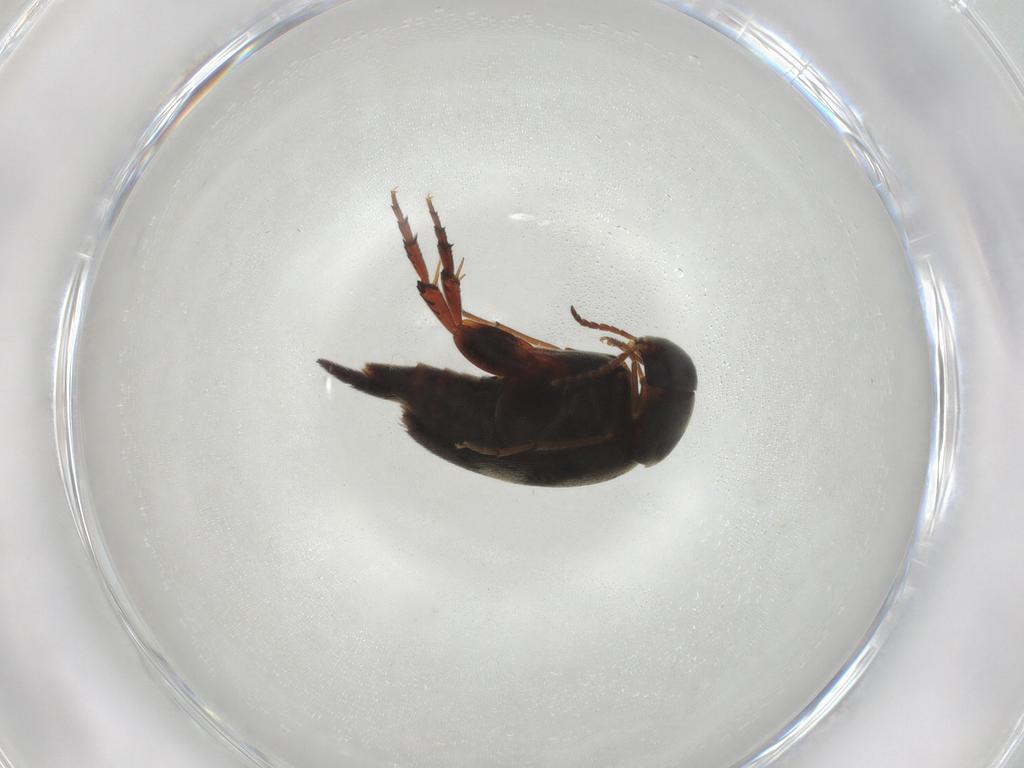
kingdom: Animalia
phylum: Arthropoda
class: Insecta
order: Coleoptera
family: Mordellidae
